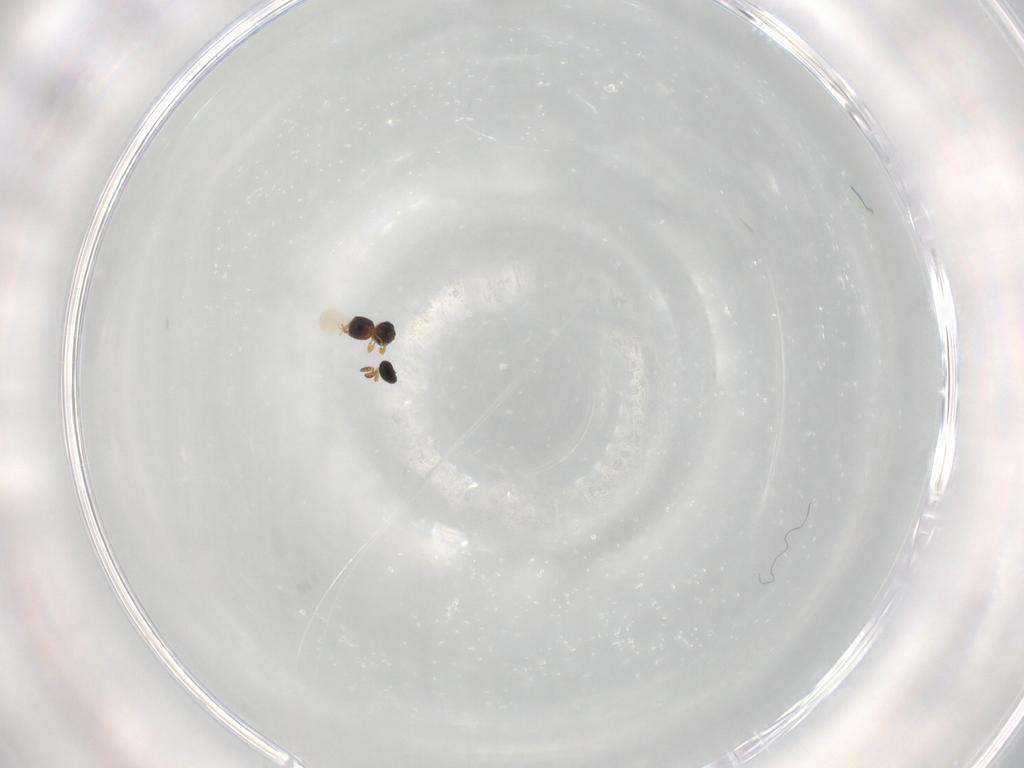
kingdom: Animalia
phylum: Arthropoda
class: Insecta
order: Hymenoptera
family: Platygastridae
